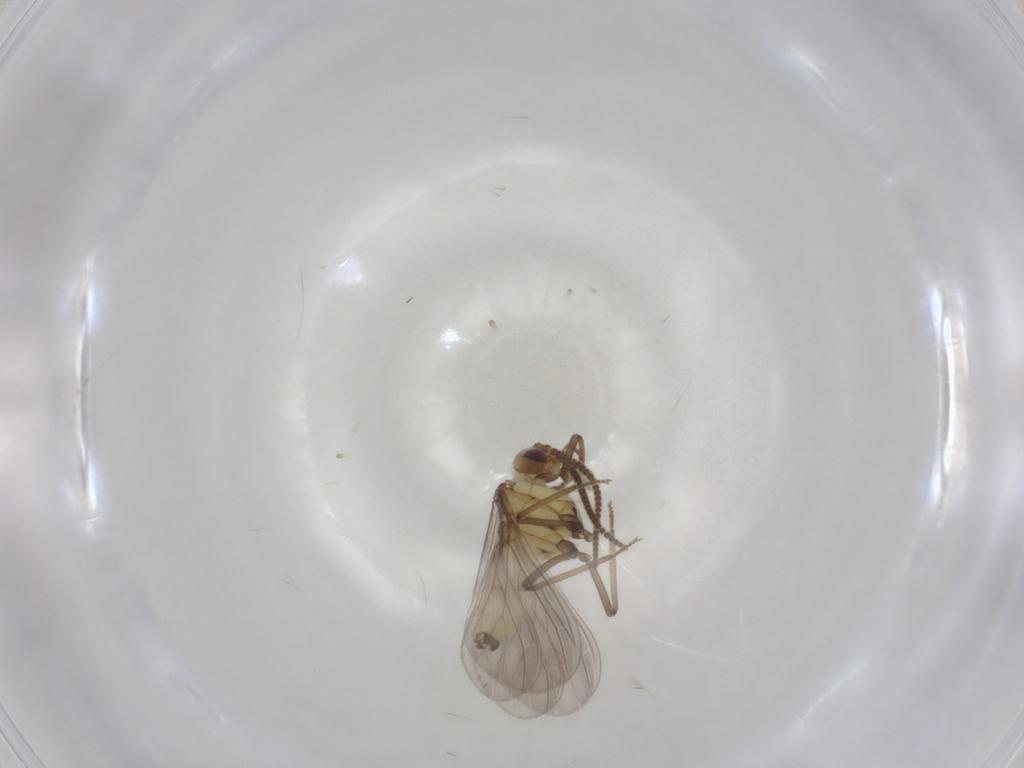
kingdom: Animalia
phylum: Arthropoda
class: Insecta
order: Neuroptera
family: Coniopterygidae
